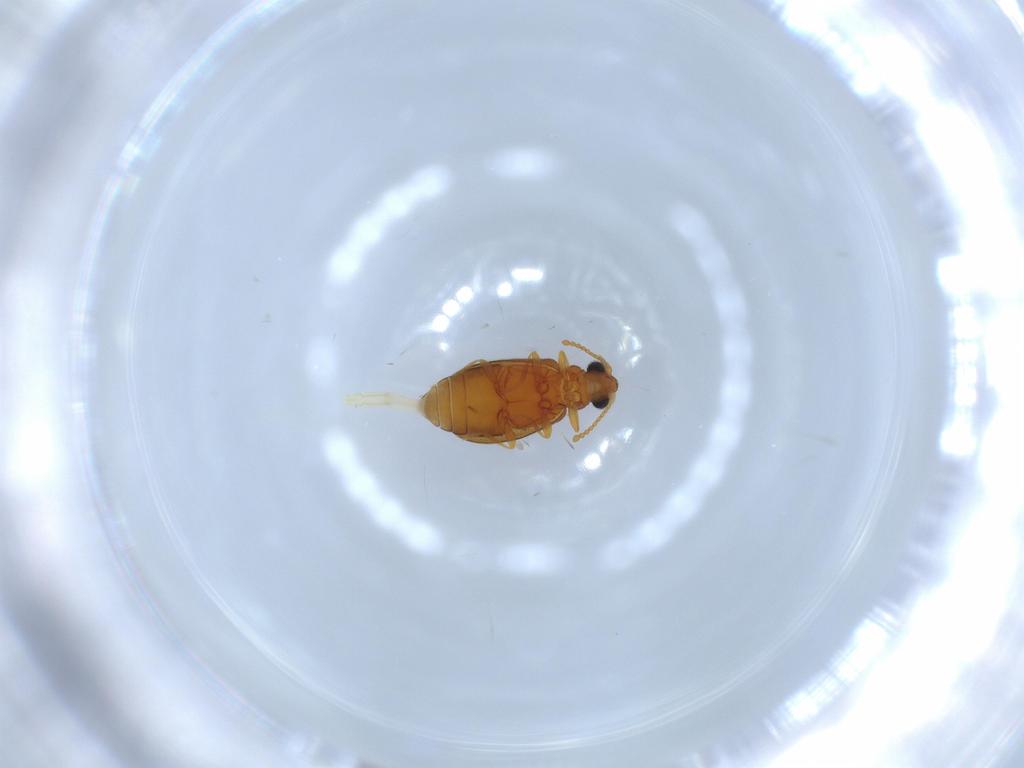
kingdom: Animalia
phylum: Arthropoda
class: Insecta
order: Coleoptera
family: Aderidae
